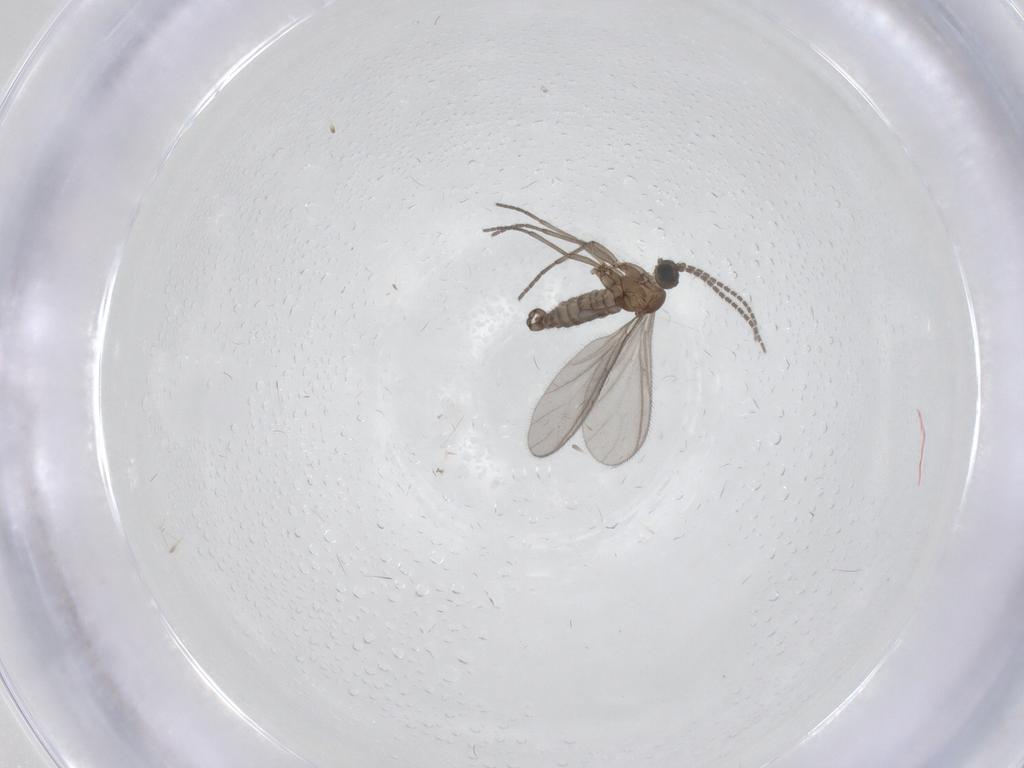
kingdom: Animalia
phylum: Arthropoda
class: Insecta
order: Diptera
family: Sciaridae
